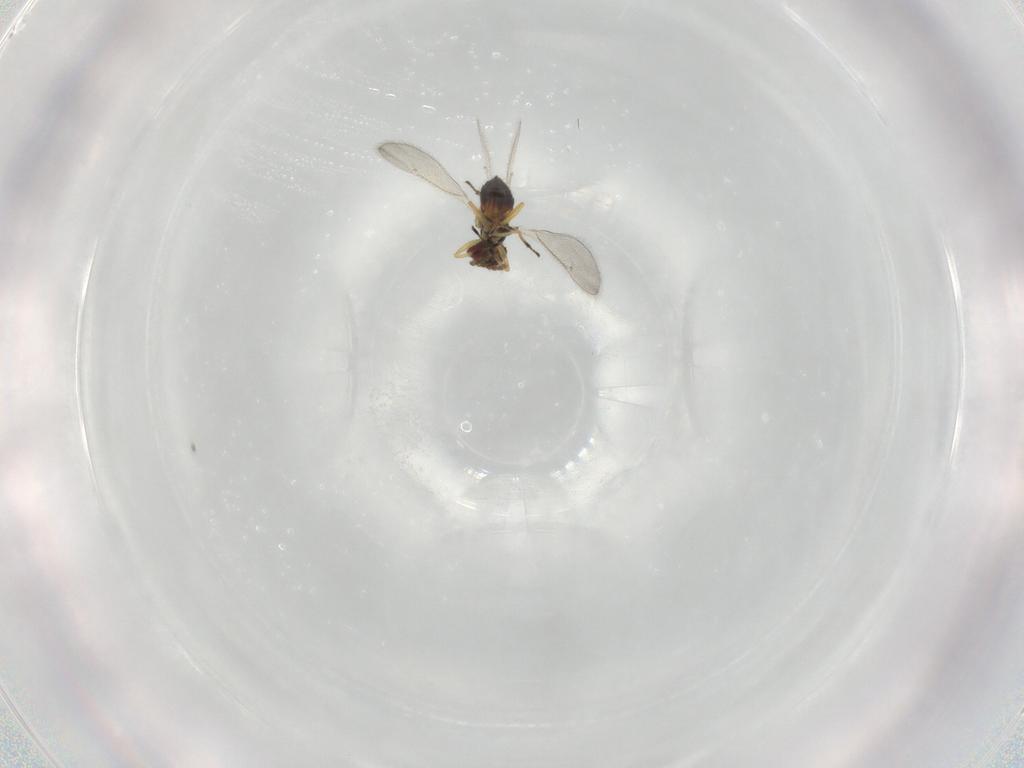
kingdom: Animalia
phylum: Arthropoda
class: Insecta
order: Hymenoptera
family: Eulophidae
